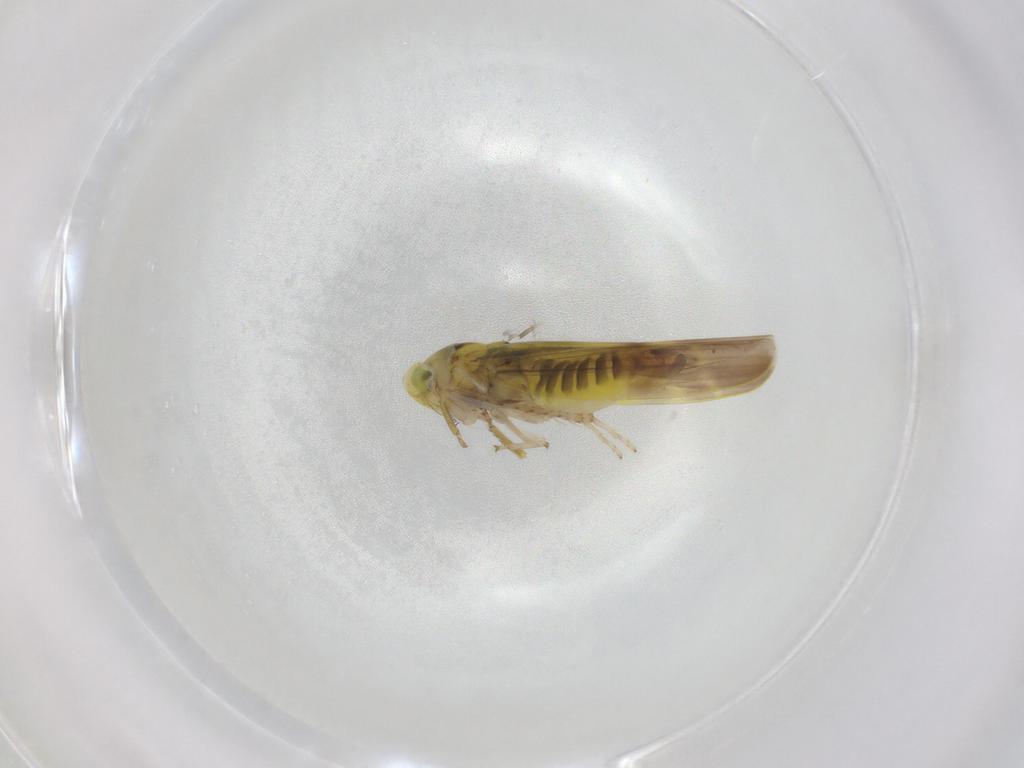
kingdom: Animalia
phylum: Arthropoda
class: Insecta
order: Hemiptera
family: Cicadellidae
